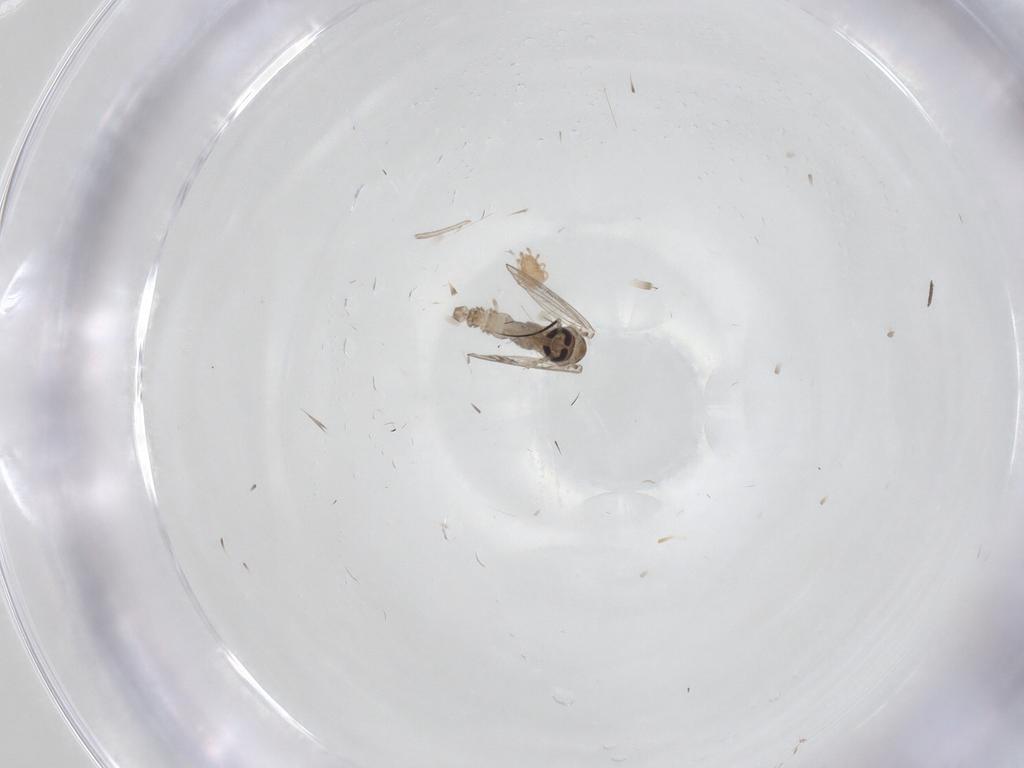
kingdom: Animalia
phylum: Arthropoda
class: Insecta
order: Diptera
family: Psychodidae
